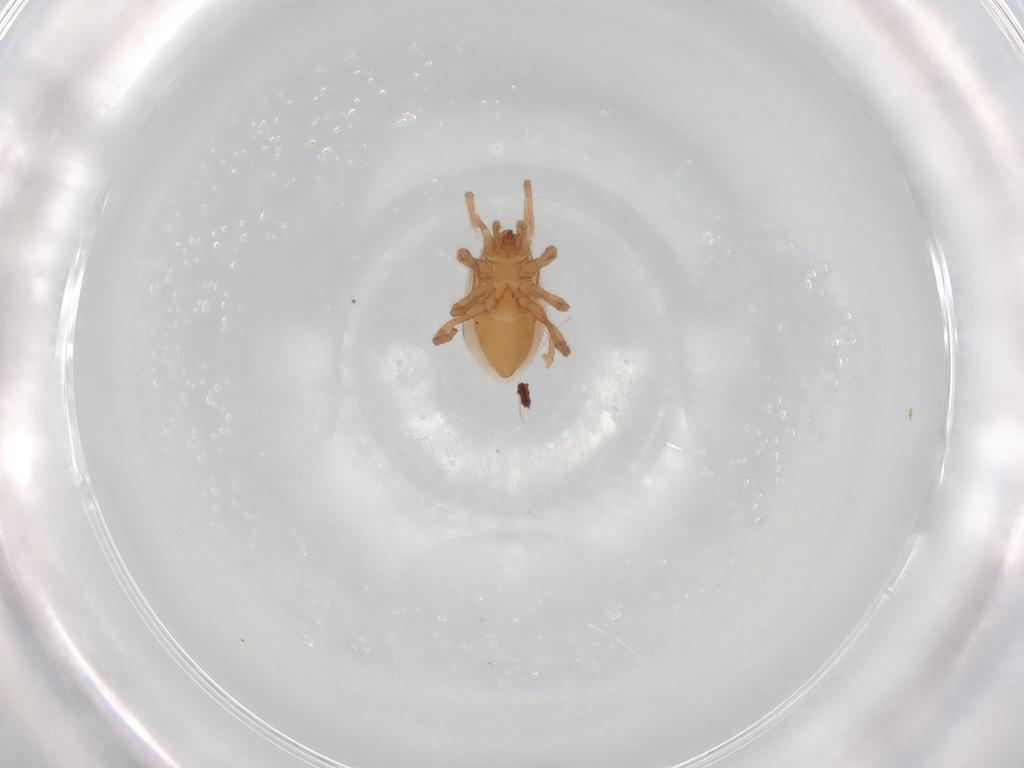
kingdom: Animalia
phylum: Arthropoda
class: Arachnida
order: Mesostigmata
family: Parasitidae
